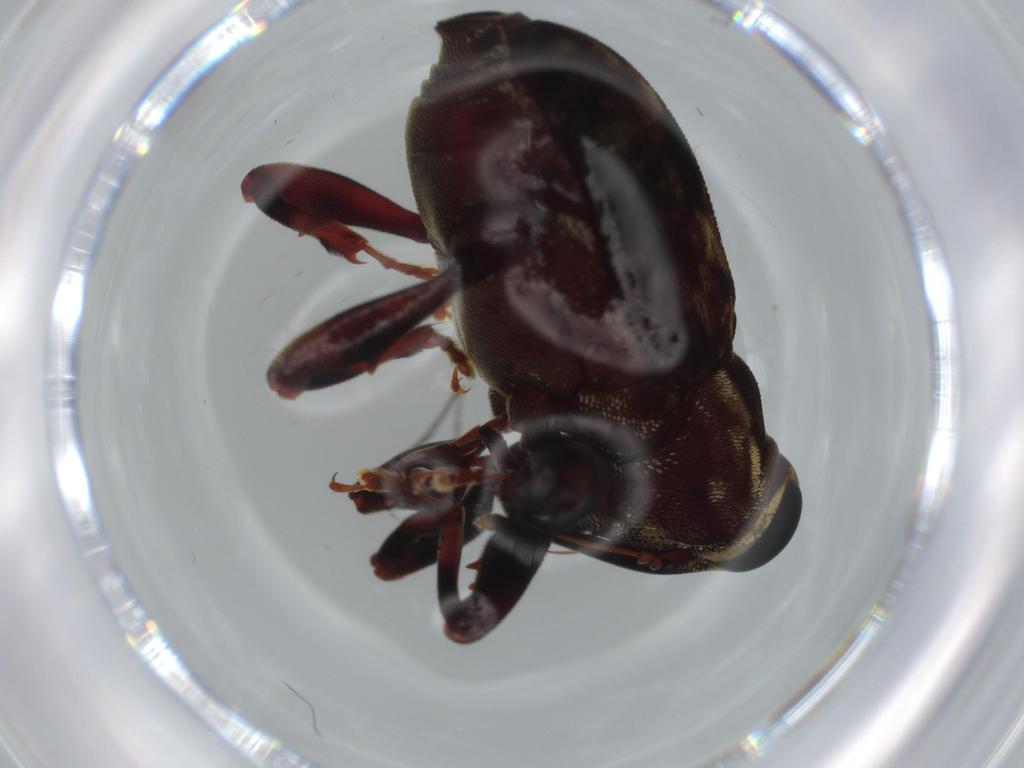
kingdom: Animalia
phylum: Arthropoda
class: Insecta
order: Coleoptera
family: Curculionidae
